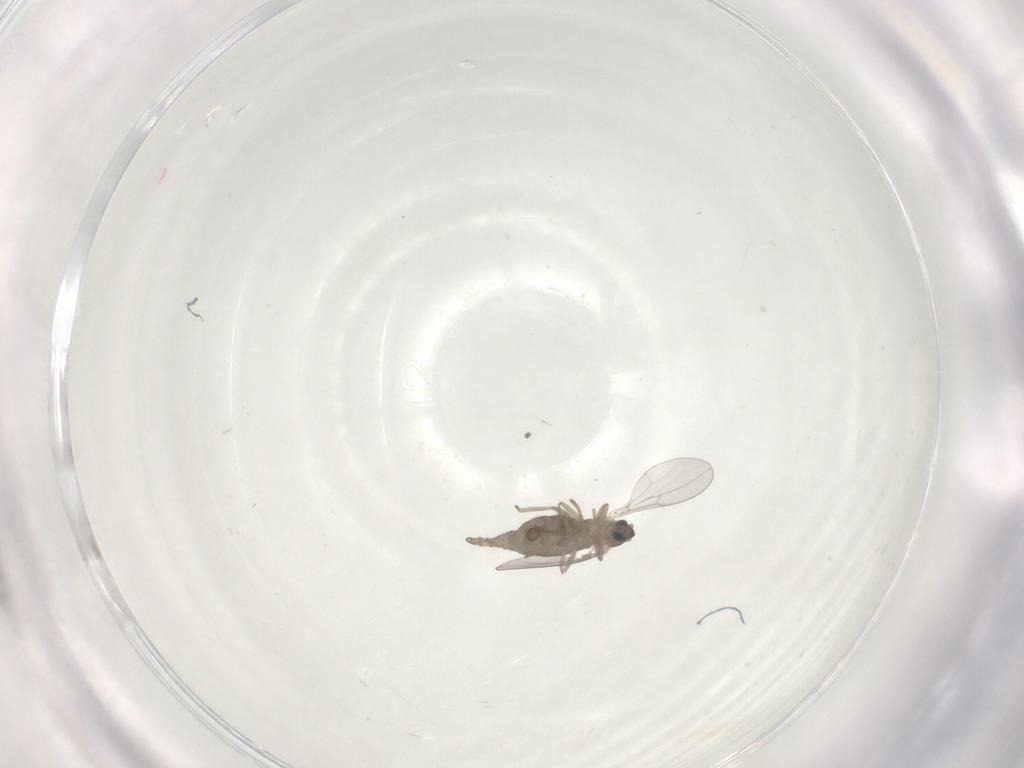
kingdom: Animalia
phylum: Arthropoda
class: Insecta
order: Diptera
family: Cecidomyiidae
